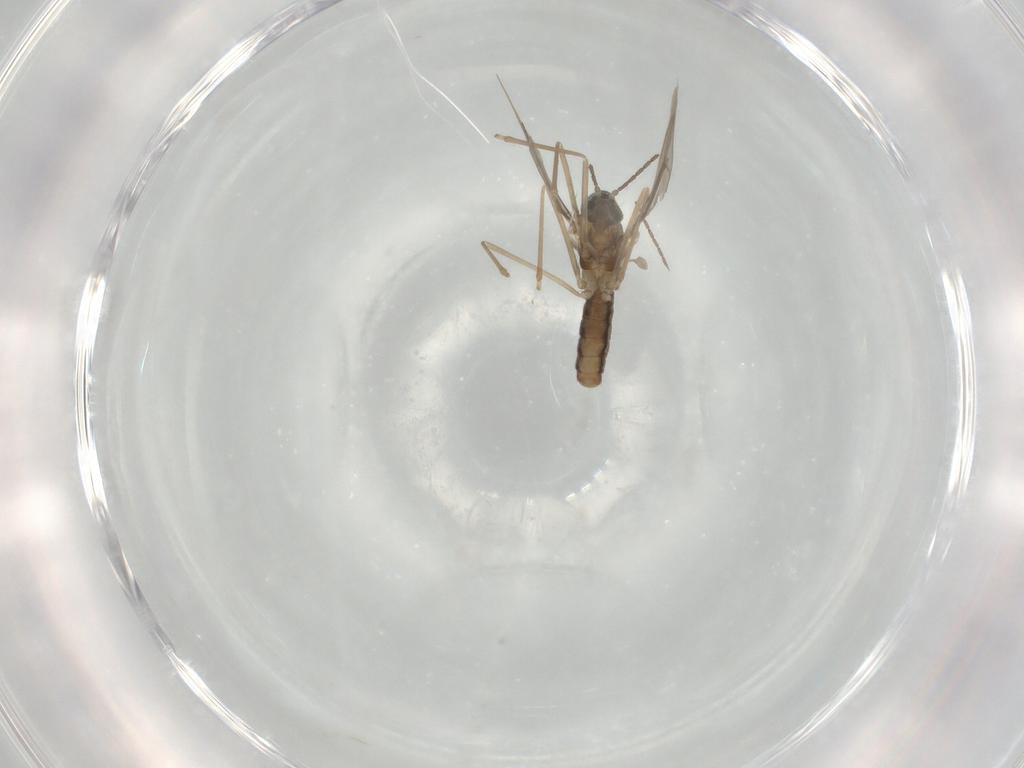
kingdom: Animalia
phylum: Arthropoda
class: Insecta
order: Diptera
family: Cecidomyiidae
